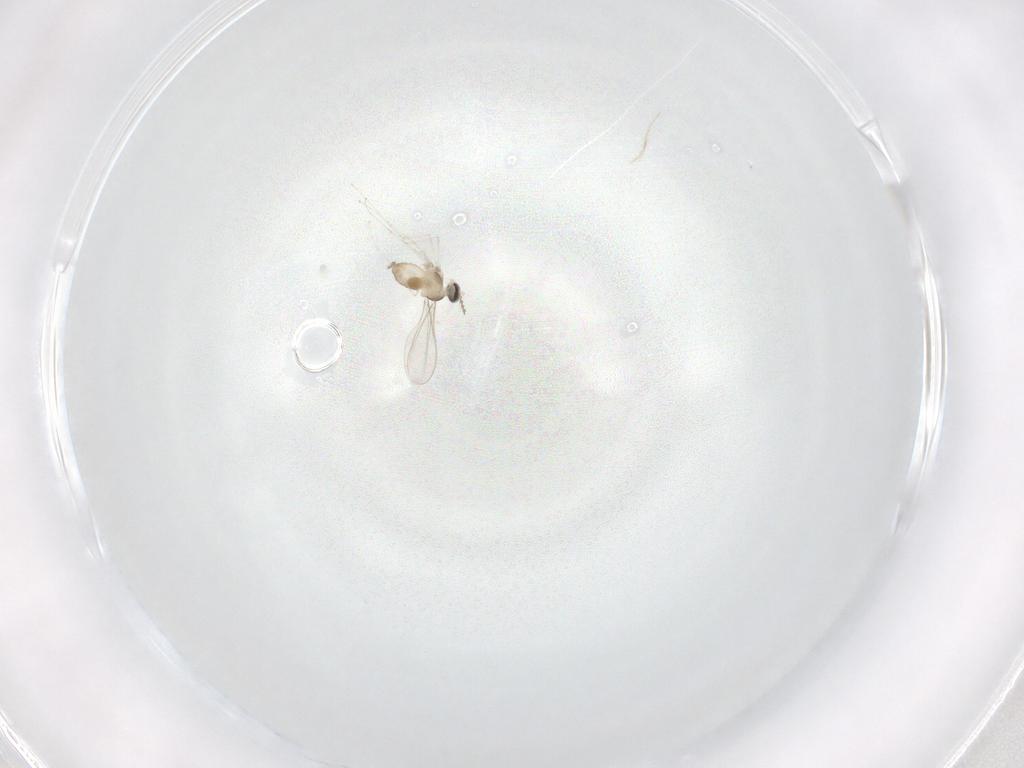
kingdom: Animalia
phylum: Arthropoda
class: Insecta
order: Diptera
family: Cecidomyiidae
